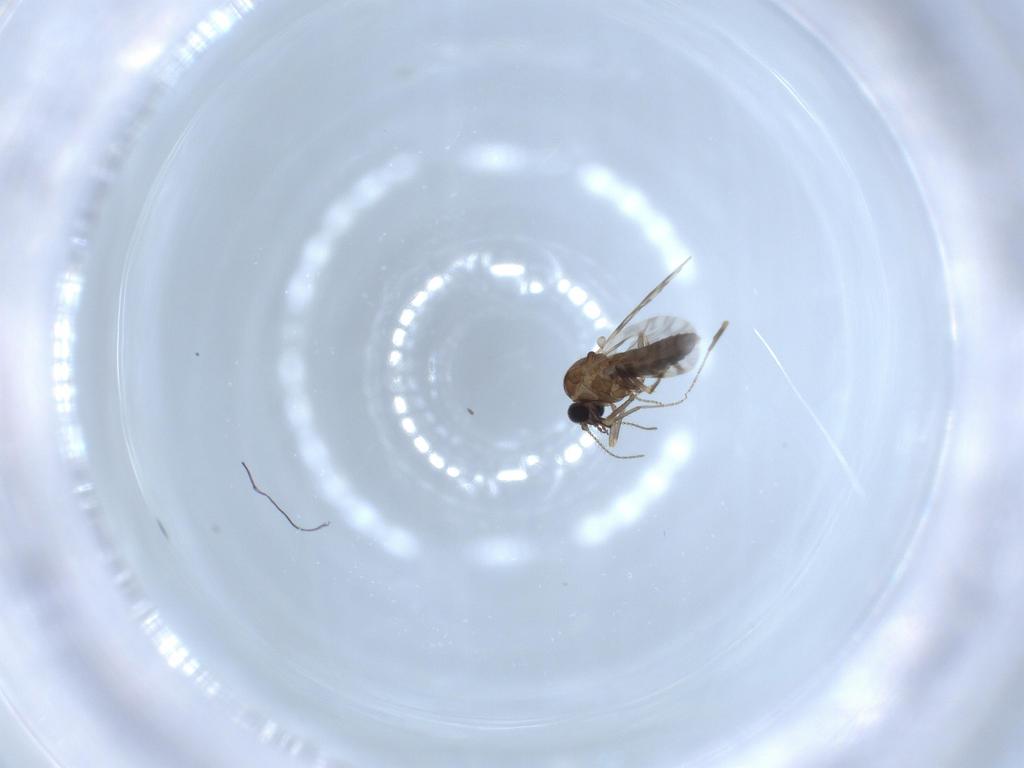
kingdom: Animalia
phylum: Arthropoda
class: Insecta
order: Diptera
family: Ceratopogonidae
